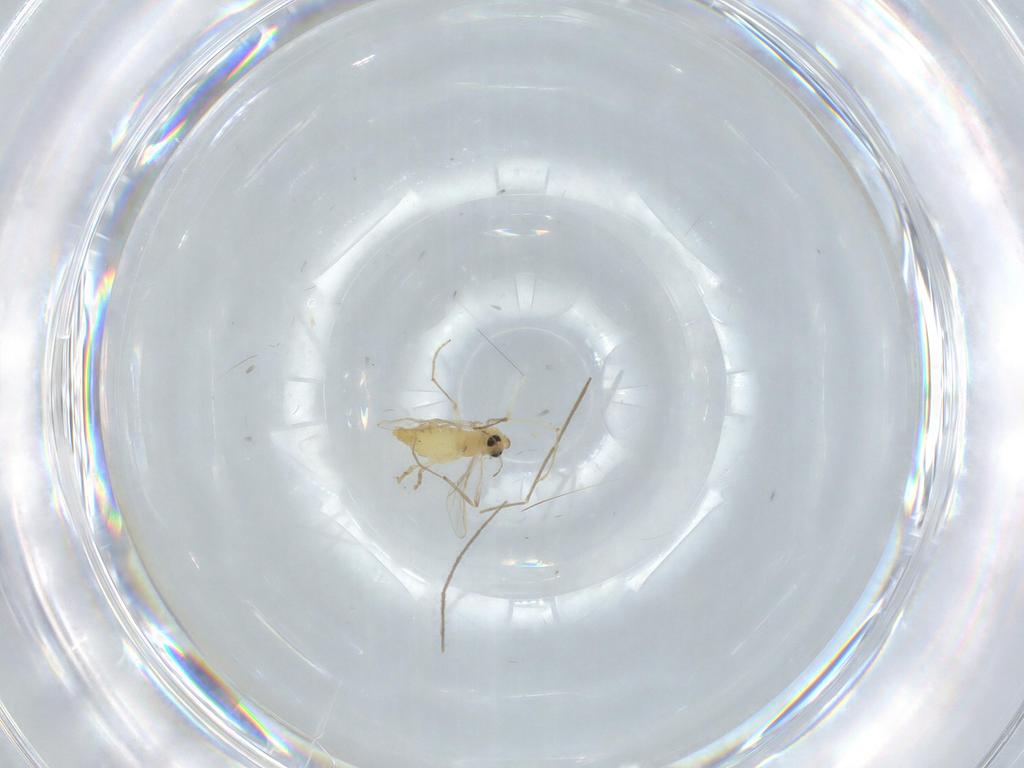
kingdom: Animalia
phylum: Arthropoda
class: Insecta
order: Diptera
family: Chironomidae
